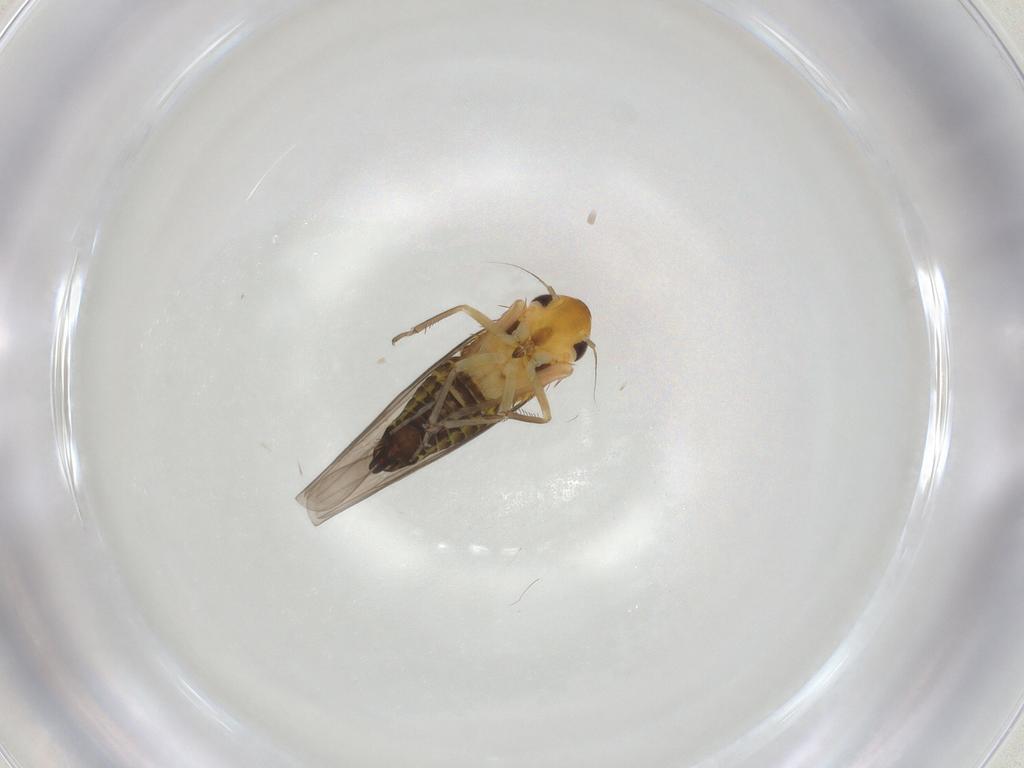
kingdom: Animalia
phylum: Arthropoda
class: Insecta
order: Hemiptera
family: Cicadellidae
